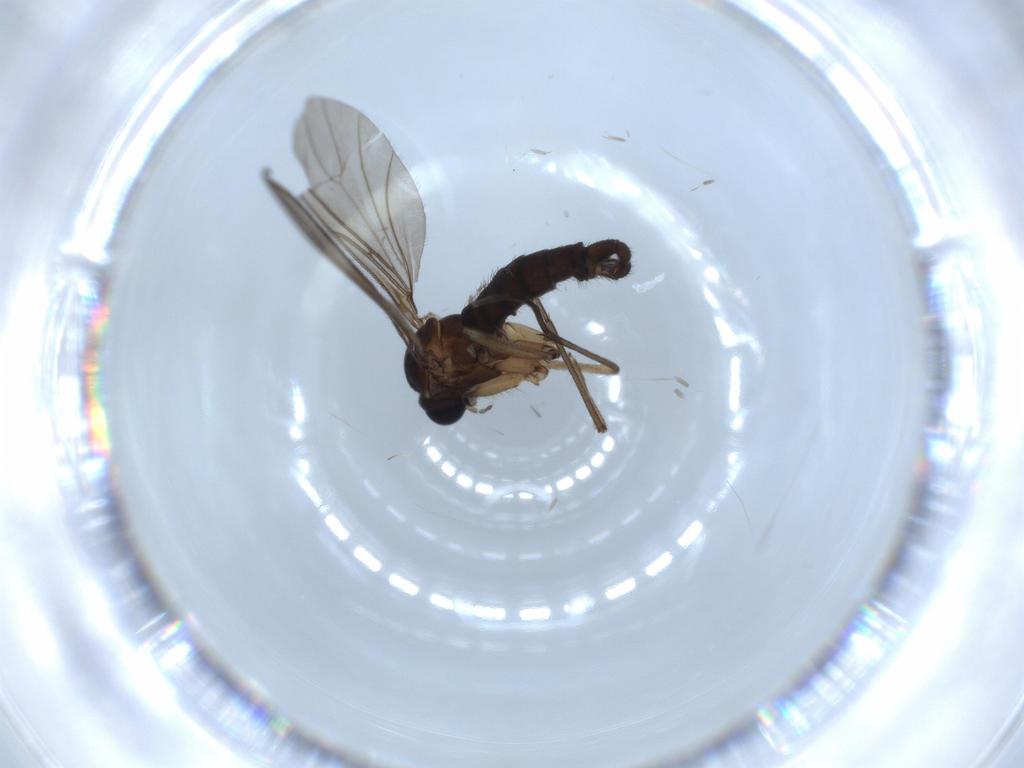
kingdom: Animalia
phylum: Arthropoda
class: Insecta
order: Diptera
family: Sciaridae
